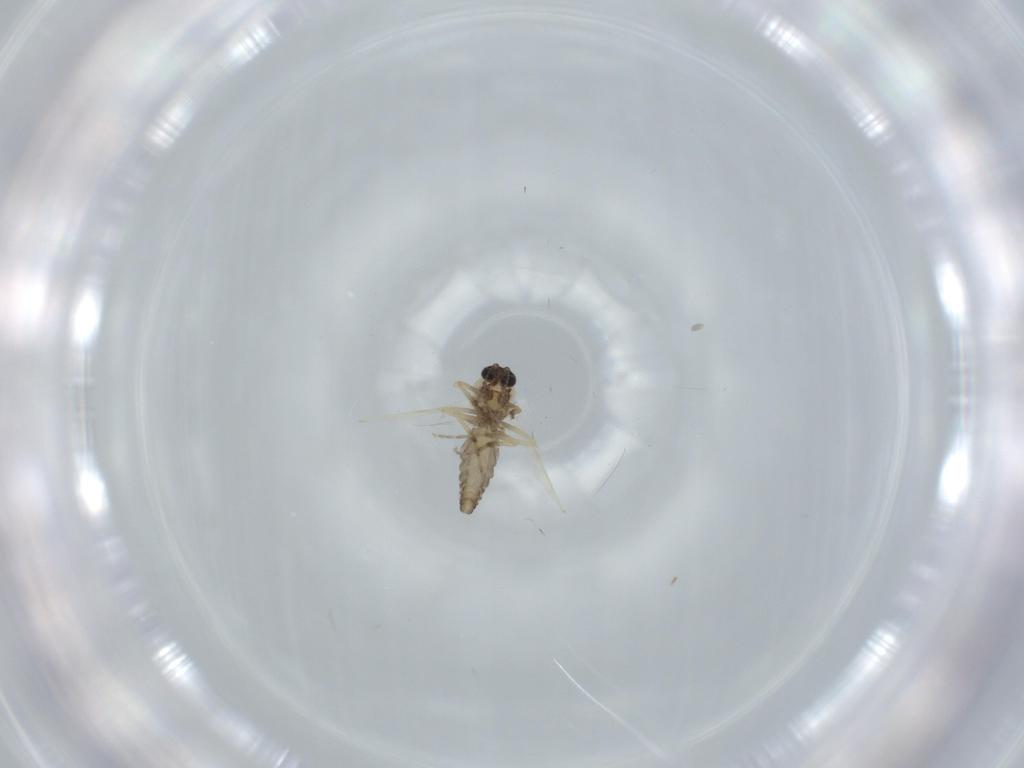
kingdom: Animalia
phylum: Arthropoda
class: Insecta
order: Diptera
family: Ceratopogonidae
